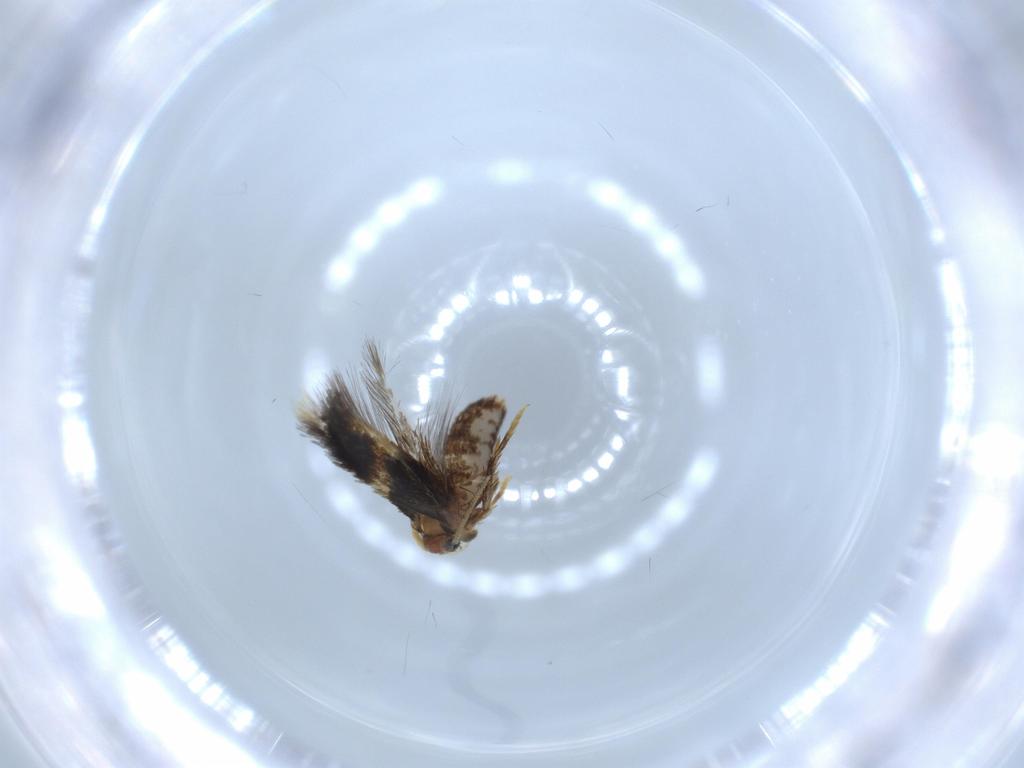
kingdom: Animalia
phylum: Arthropoda
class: Insecta
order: Lepidoptera
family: Nepticulidae
